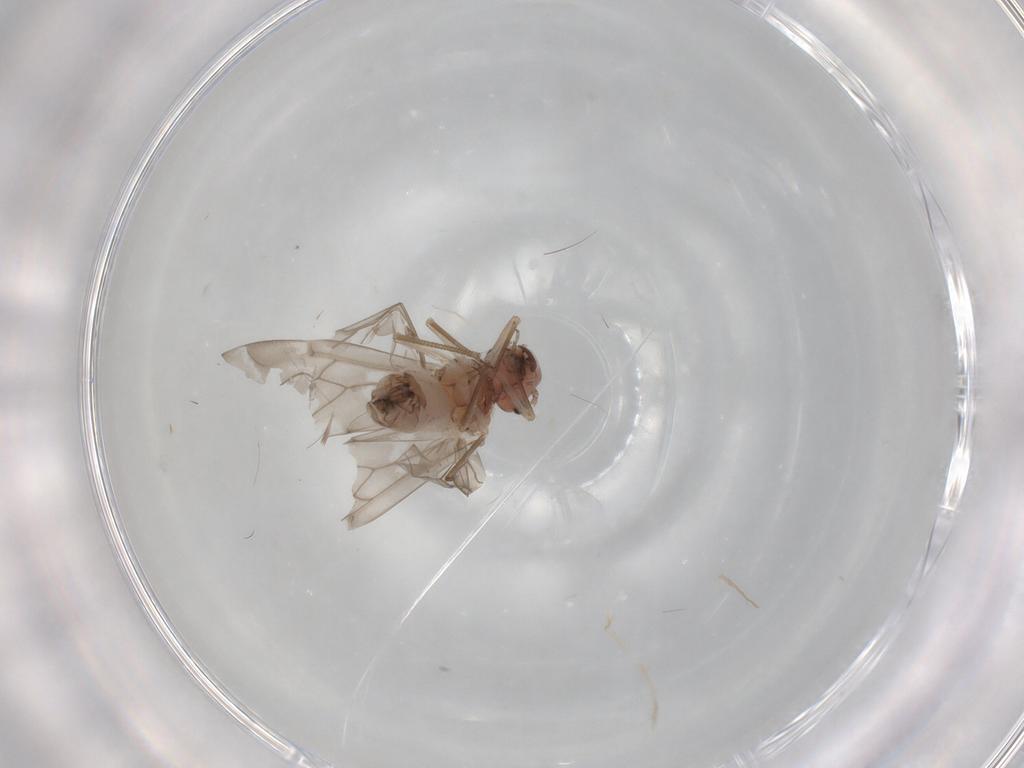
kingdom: Animalia
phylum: Arthropoda
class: Insecta
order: Psocodea
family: Peripsocidae
